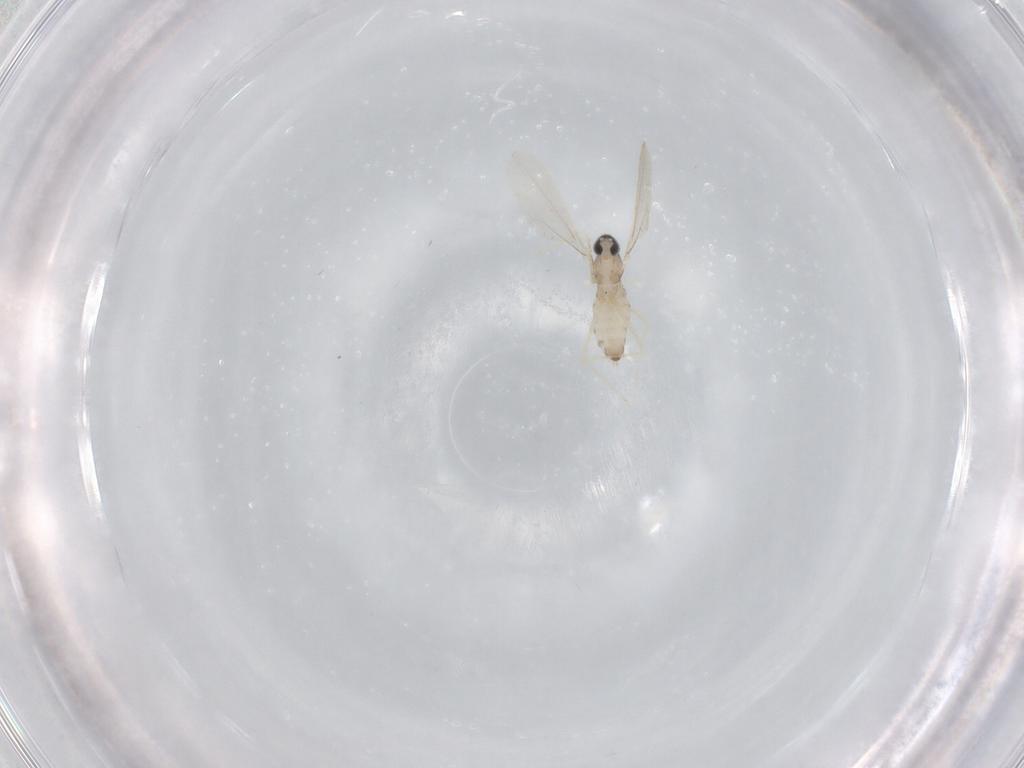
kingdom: Animalia
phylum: Arthropoda
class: Insecta
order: Diptera
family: Cecidomyiidae
